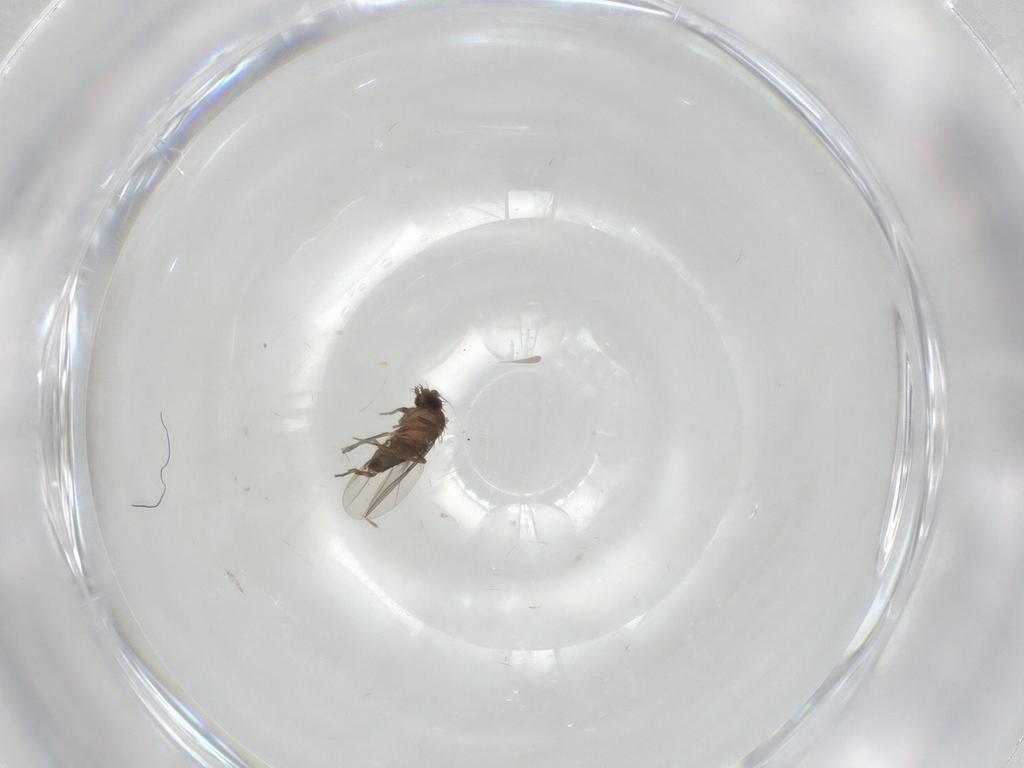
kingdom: Animalia
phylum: Arthropoda
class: Insecta
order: Diptera
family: Phoridae
